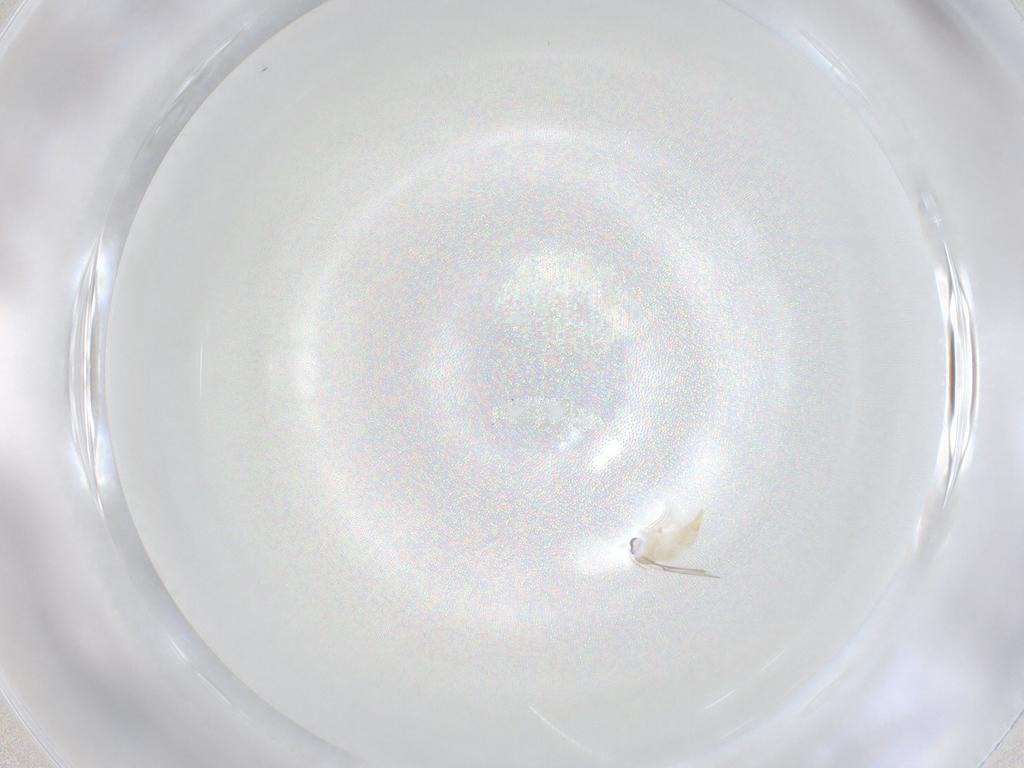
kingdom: Animalia
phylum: Arthropoda
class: Insecta
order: Diptera
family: Cecidomyiidae
